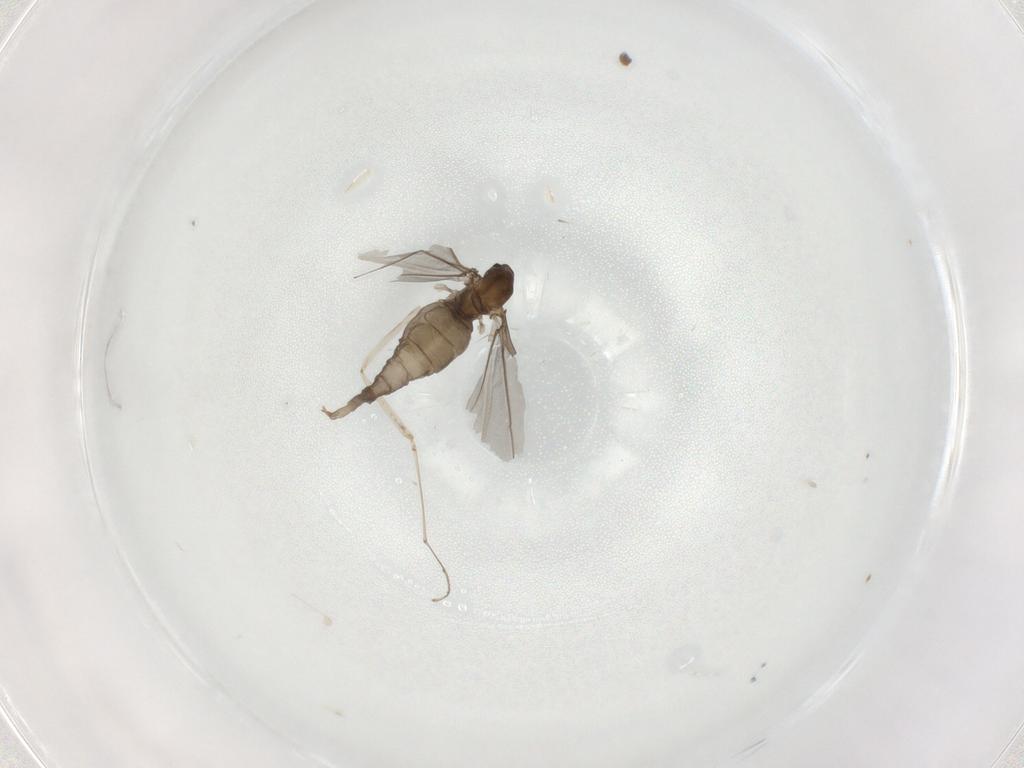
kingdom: Animalia
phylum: Arthropoda
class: Insecta
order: Diptera
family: Cecidomyiidae
